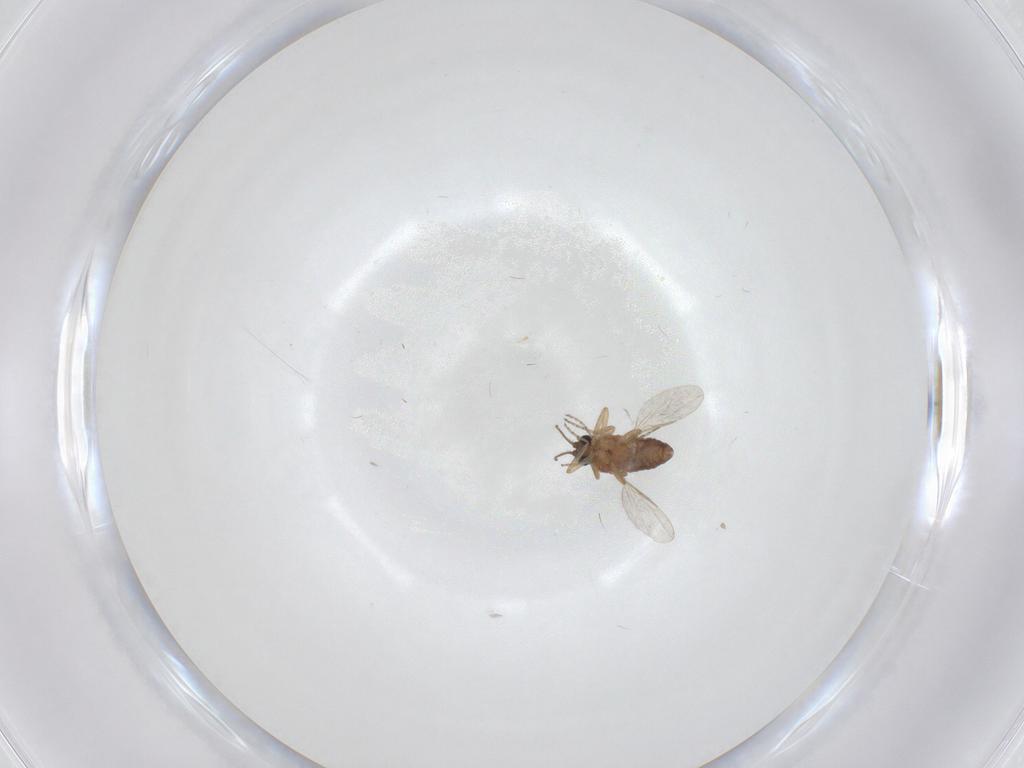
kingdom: Animalia
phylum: Arthropoda
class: Insecta
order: Diptera
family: Ceratopogonidae
